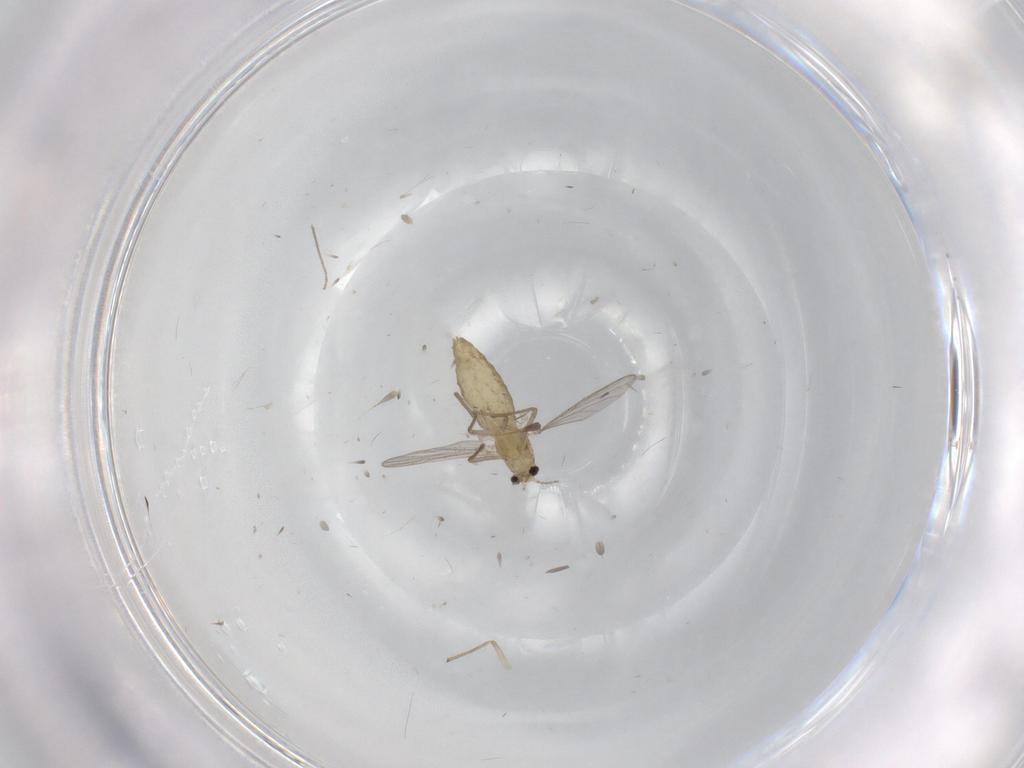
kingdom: Animalia
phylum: Arthropoda
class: Insecta
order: Diptera
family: Chironomidae
